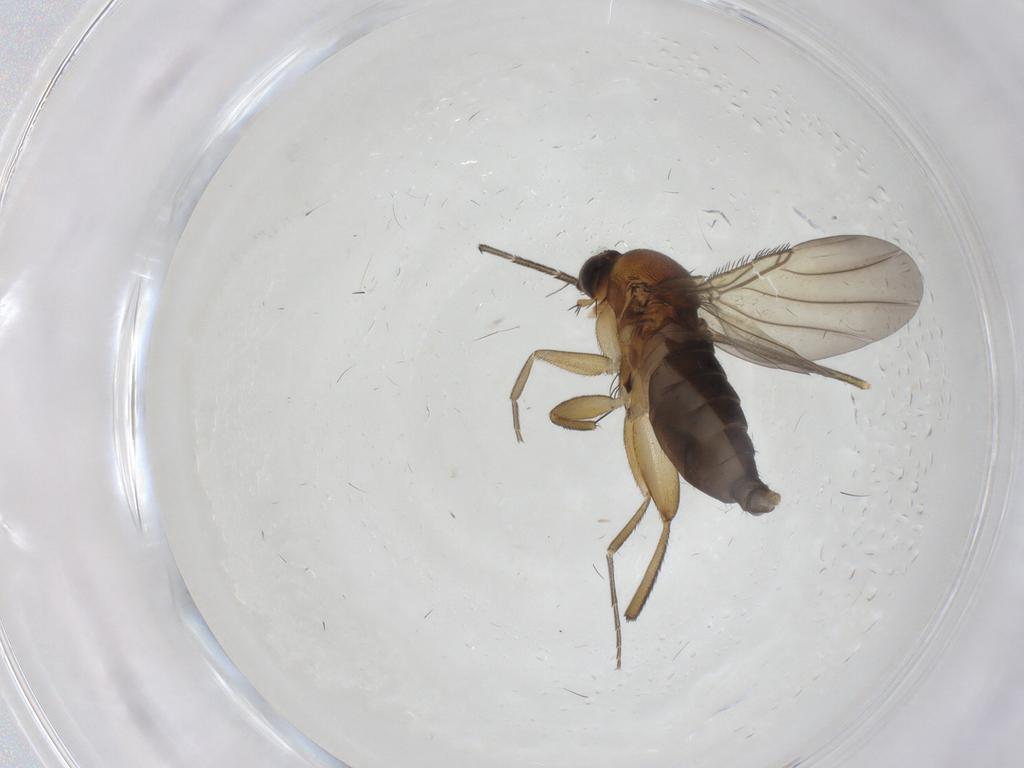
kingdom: Animalia
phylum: Arthropoda
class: Insecta
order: Diptera
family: Phoridae
